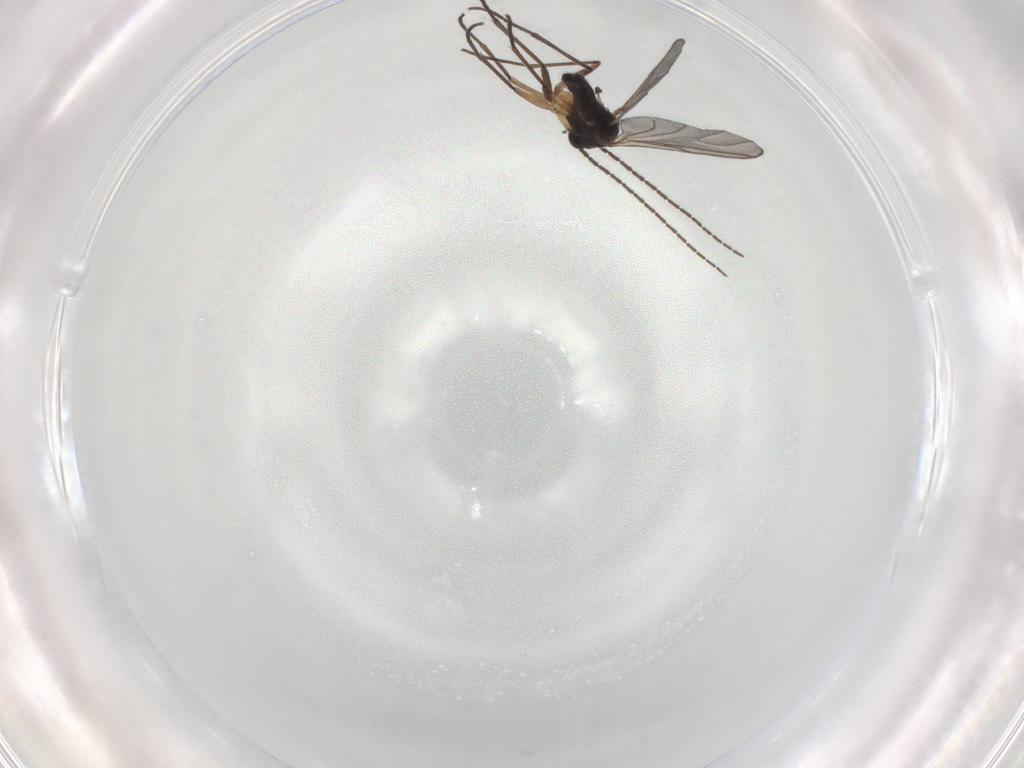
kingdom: Animalia
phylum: Arthropoda
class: Insecta
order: Diptera
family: Sciaridae
